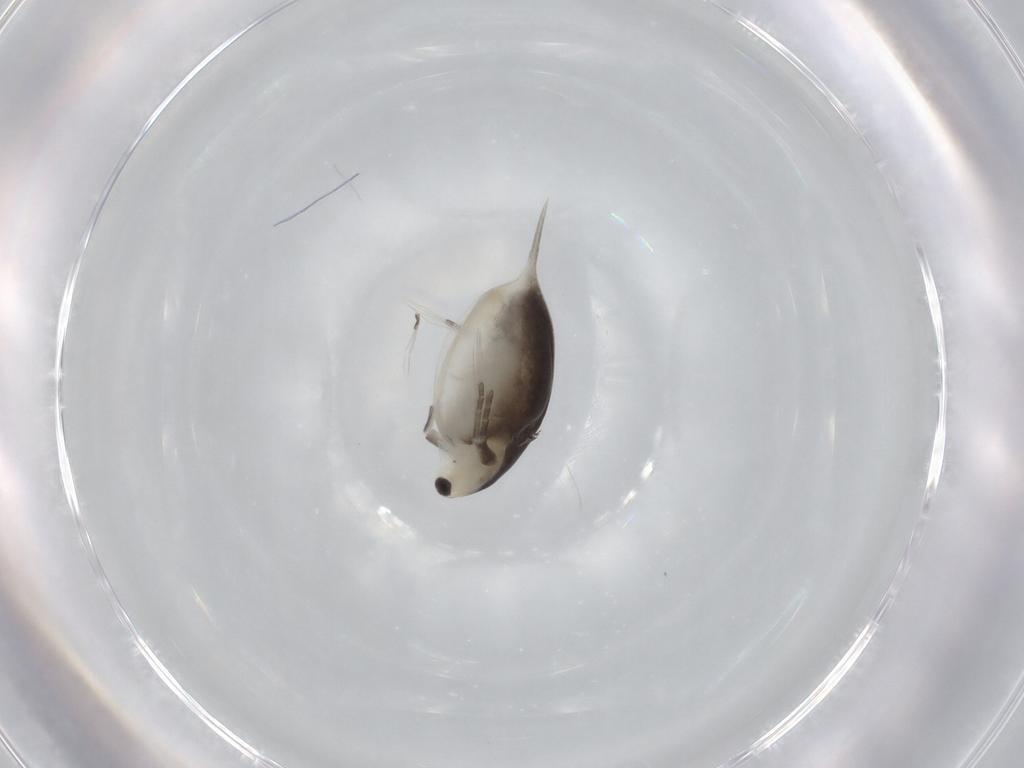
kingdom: Animalia
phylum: Arthropoda
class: Branchiopoda
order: Diplostraca
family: Daphniidae
